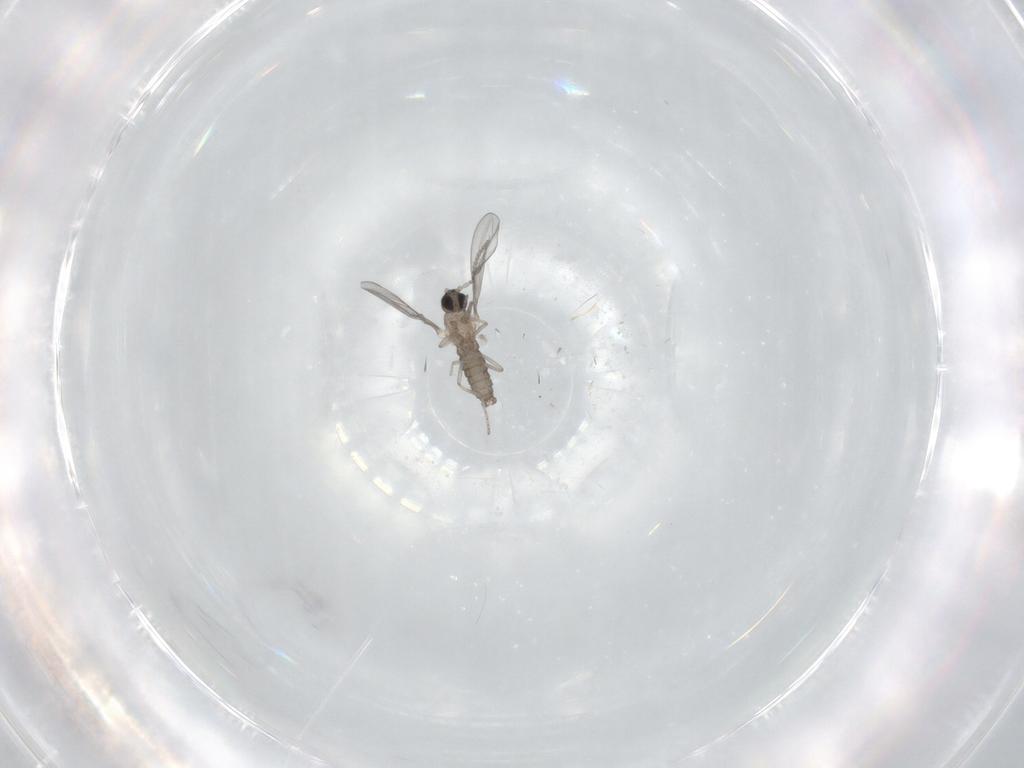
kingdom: Animalia
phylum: Arthropoda
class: Insecta
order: Diptera
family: Cecidomyiidae
